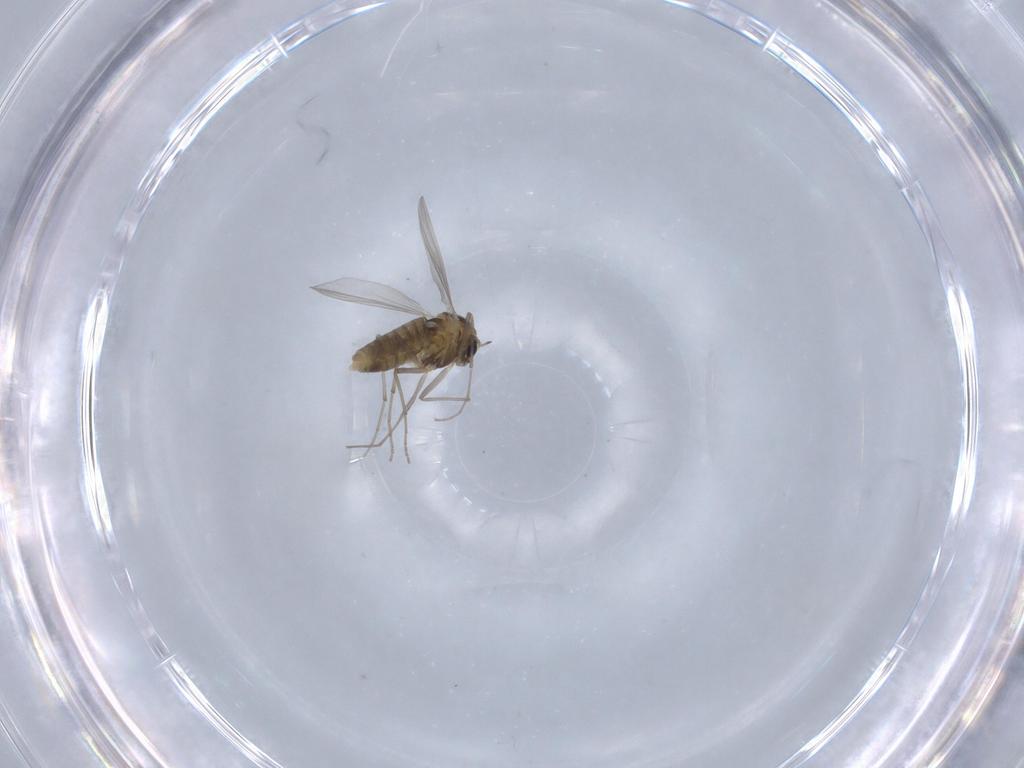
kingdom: Animalia
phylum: Arthropoda
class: Insecta
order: Diptera
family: Chironomidae
